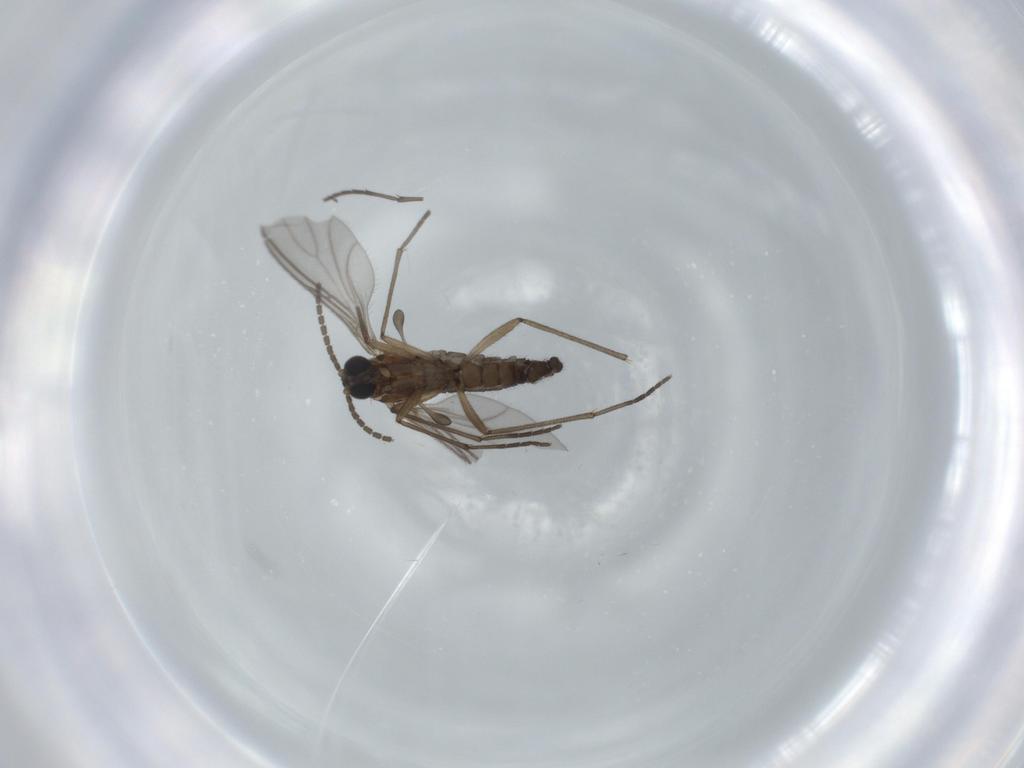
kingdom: Animalia
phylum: Arthropoda
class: Insecta
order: Diptera
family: Sciaridae
